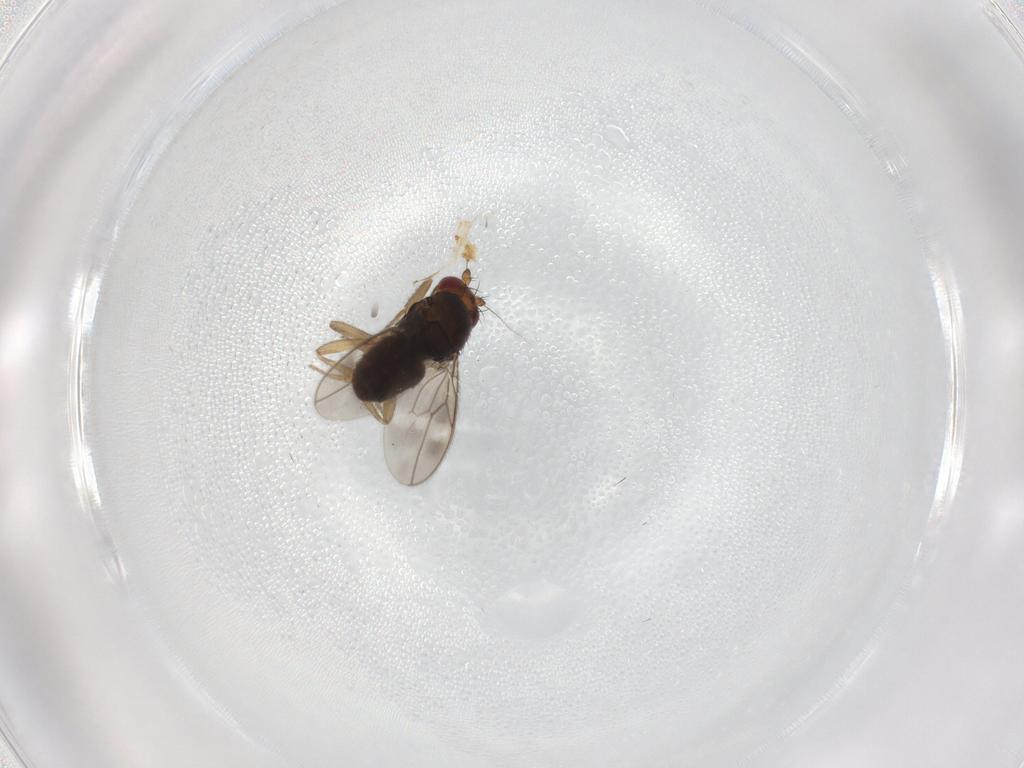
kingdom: Animalia
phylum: Arthropoda
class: Insecta
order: Diptera
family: Sphaeroceridae
